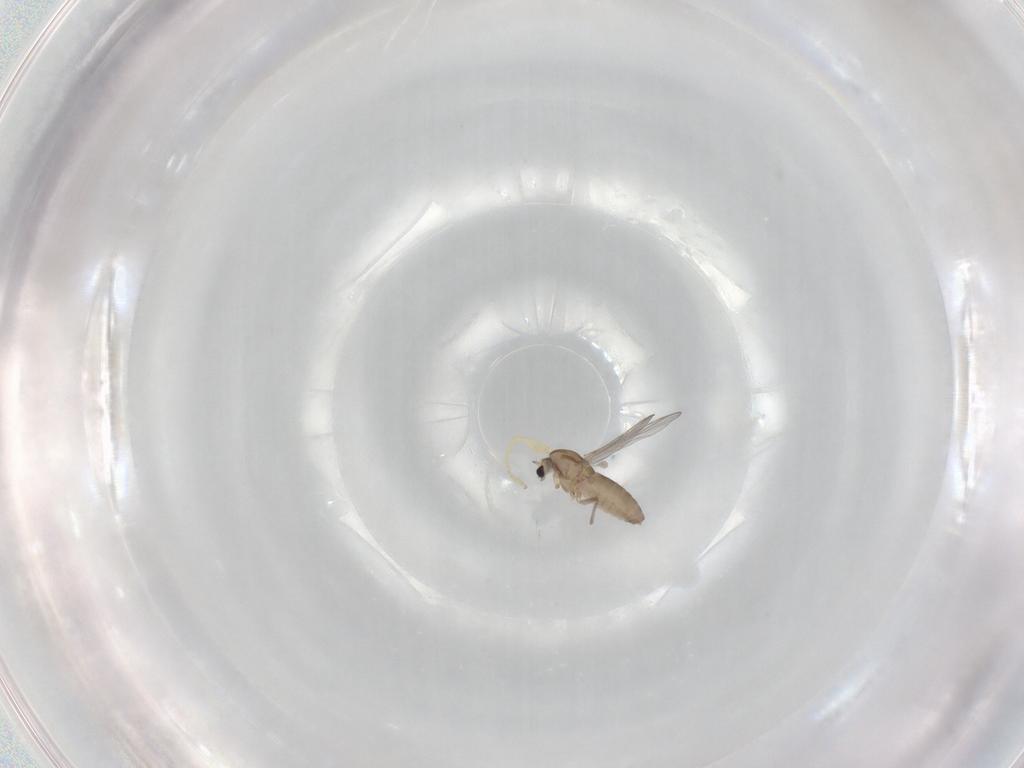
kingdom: Animalia
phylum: Arthropoda
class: Insecta
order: Diptera
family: Chironomidae
